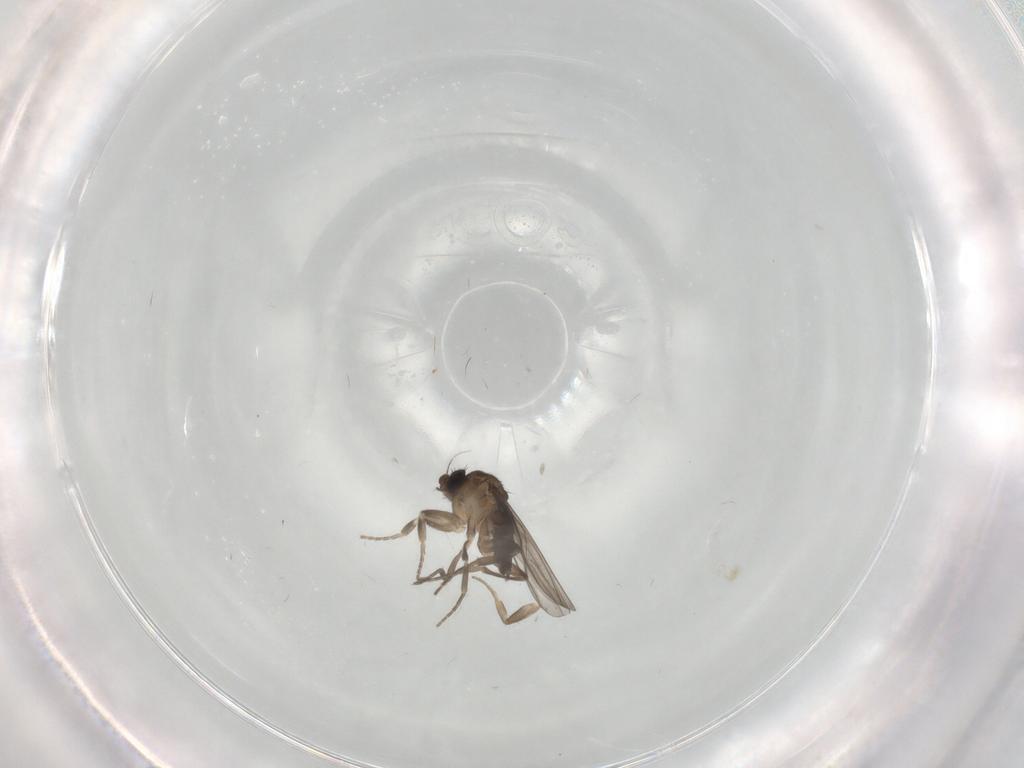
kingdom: Animalia
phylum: Arthropoda
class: Insecta
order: Diptera
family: Phoridae
